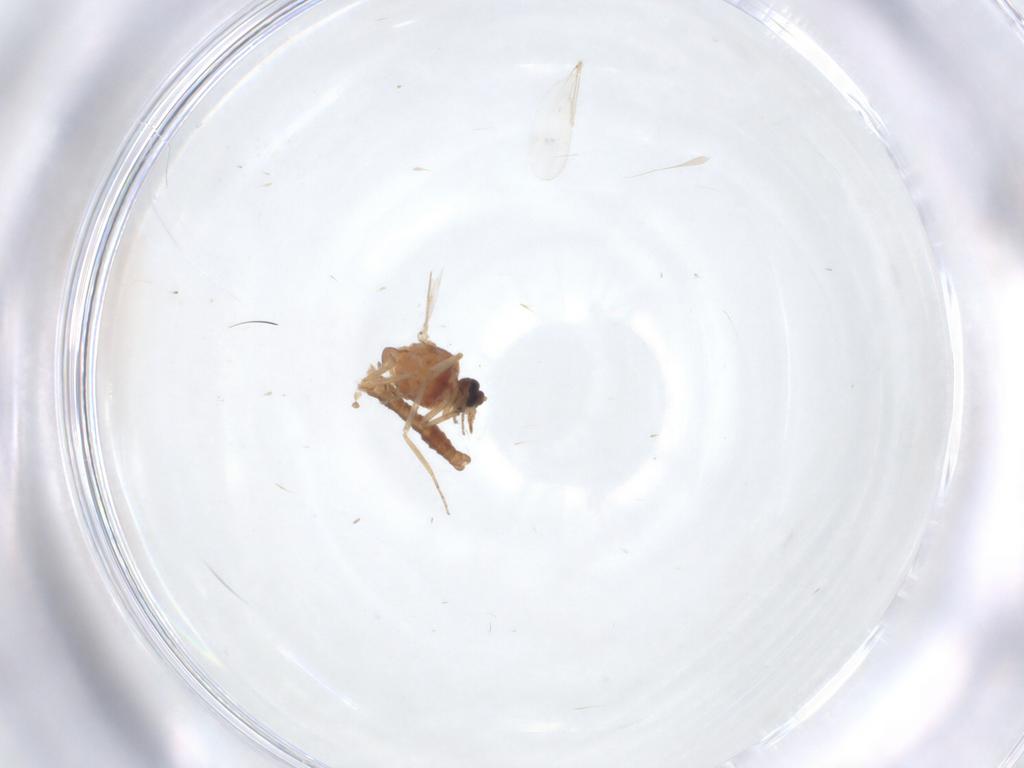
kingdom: Animalia
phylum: Arthropoda
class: Insecta
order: Diptera
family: Ceratopogonidae
